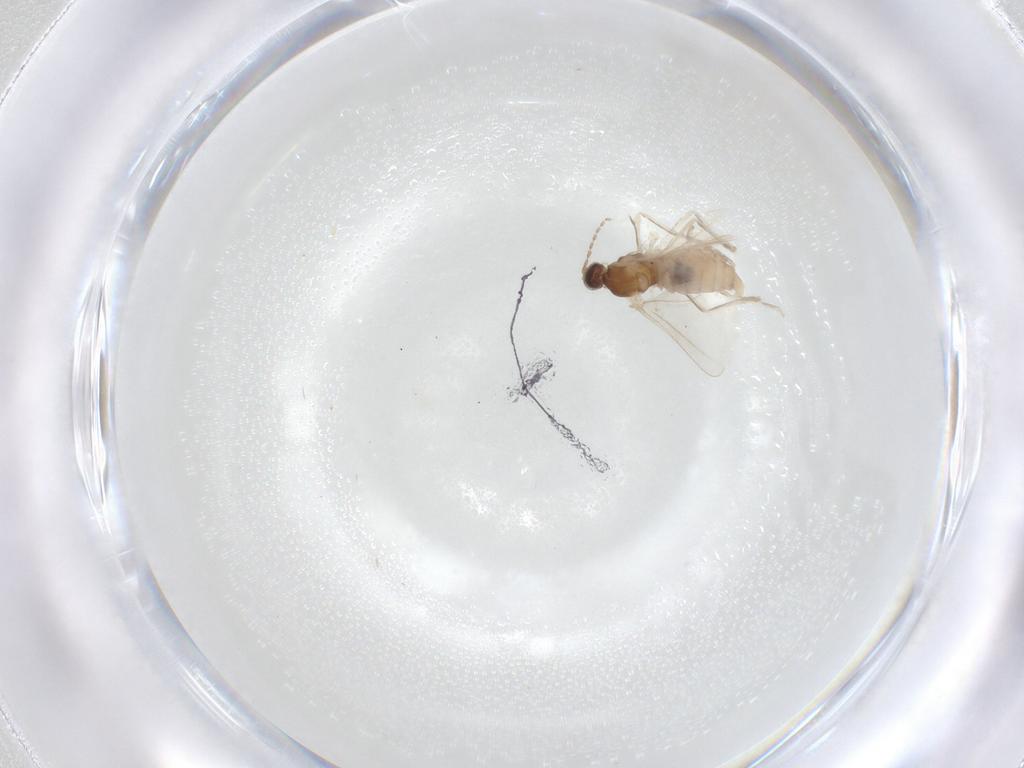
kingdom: Animalia
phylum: Arthropoda
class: Insecta
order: Diptera
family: Cecidomyiidae
